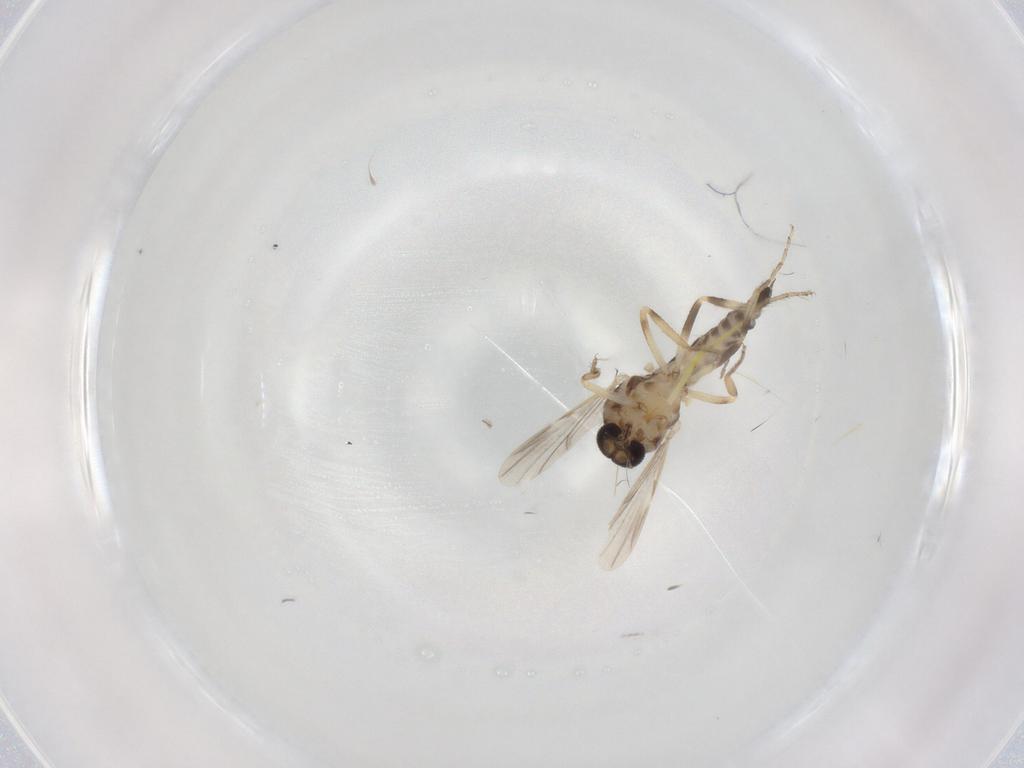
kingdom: Animalia
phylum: Arthropoda
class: Insecta
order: Diptera
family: Ceratopogonidae
